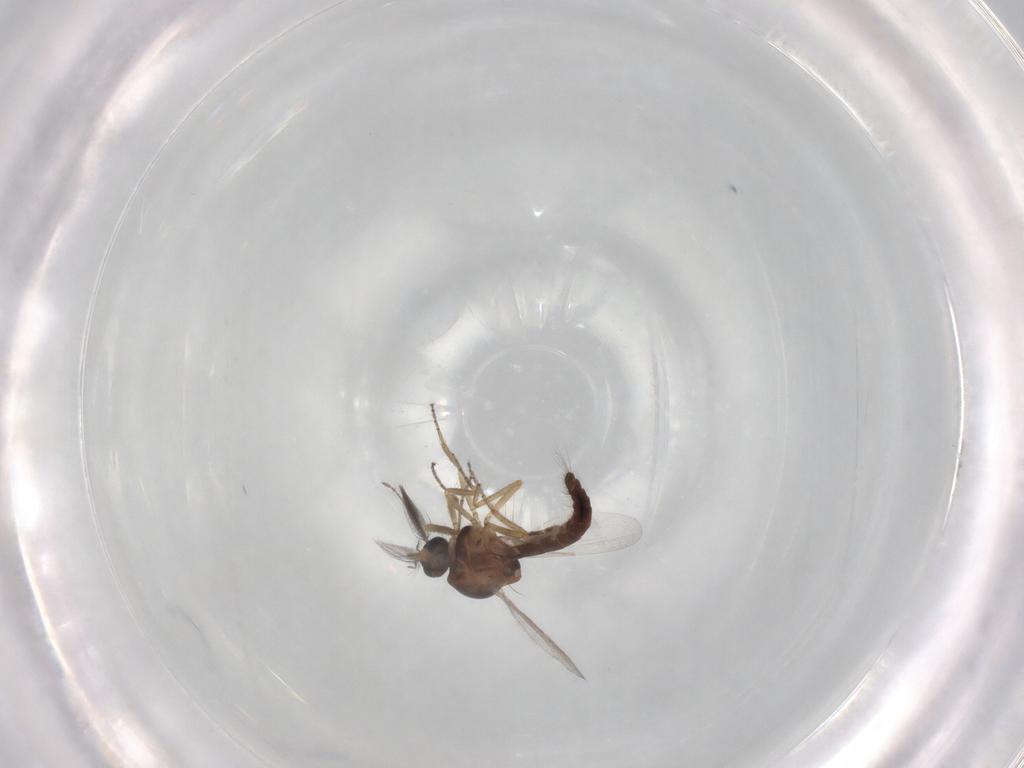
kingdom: Animalia
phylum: Arthropoda
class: Insecta
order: Diptera
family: Ceratopogonidae
